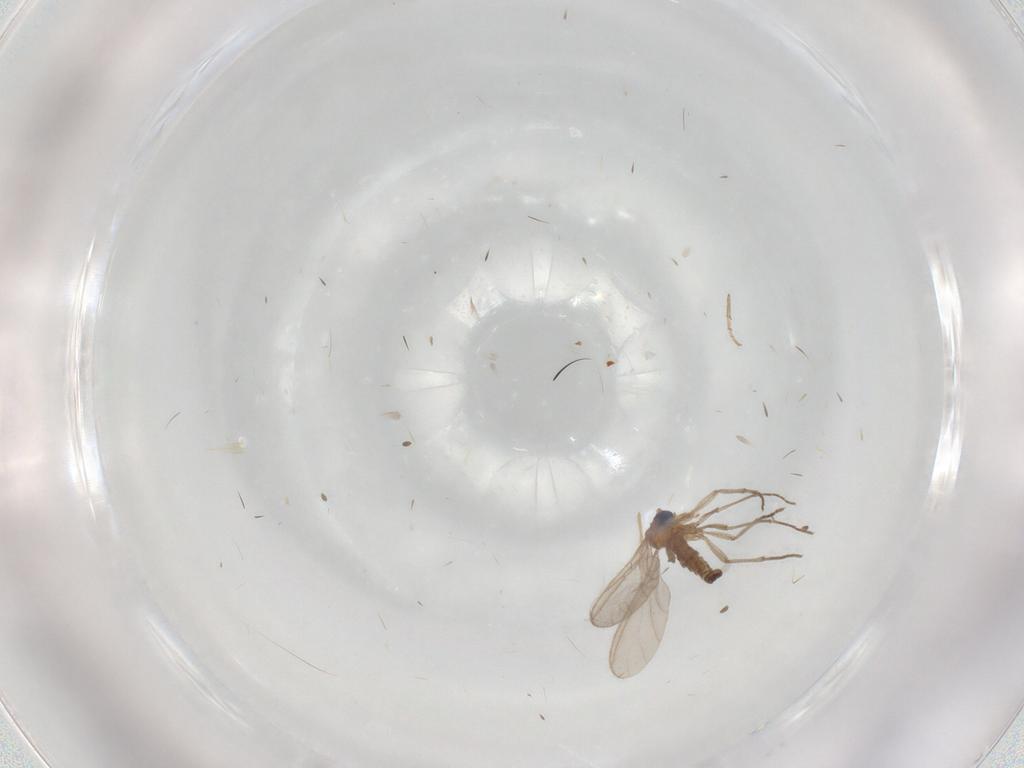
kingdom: Animalia
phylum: Arthropoda
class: Insecta
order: Diptera
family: Sciaridae
